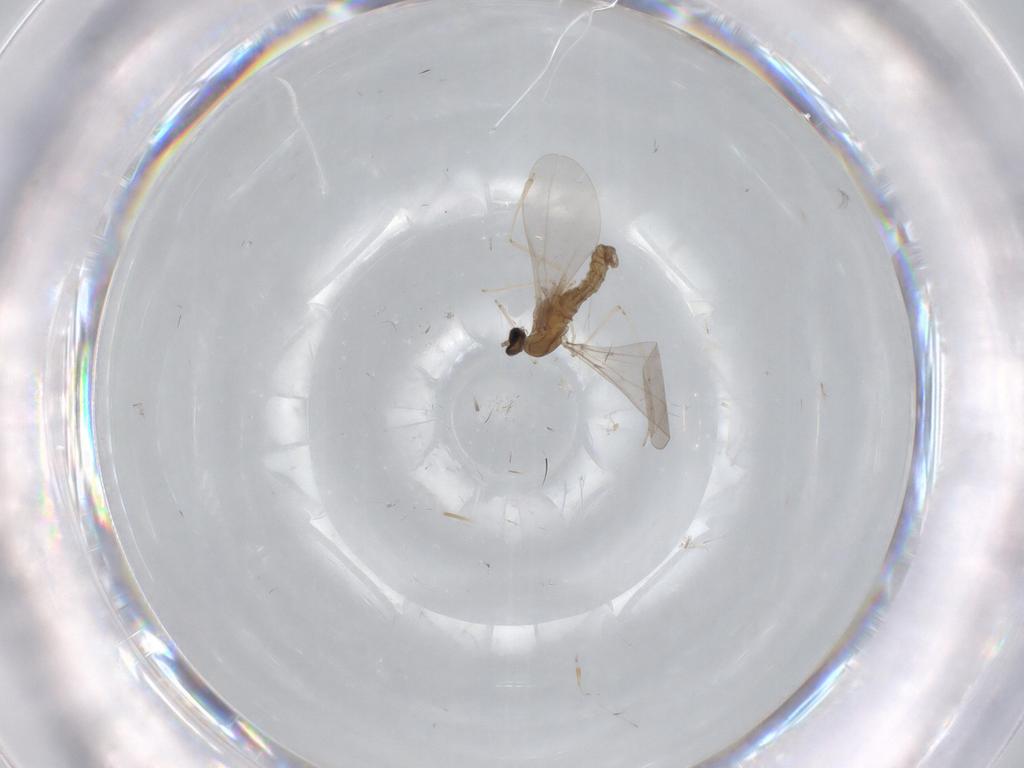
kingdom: Animalia
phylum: Arthropoda
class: Insecta
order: Diptera
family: Cecidomyiidae
